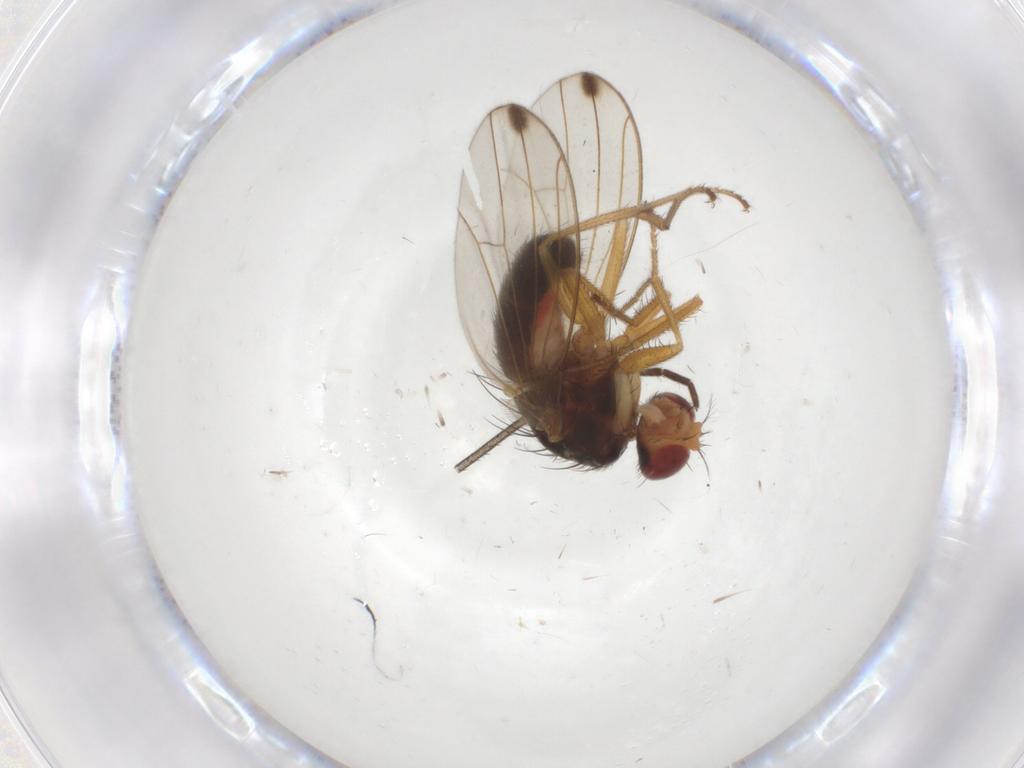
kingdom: Animalia
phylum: Arthropoda
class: Insecta
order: Diptera
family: Drosophilidae
